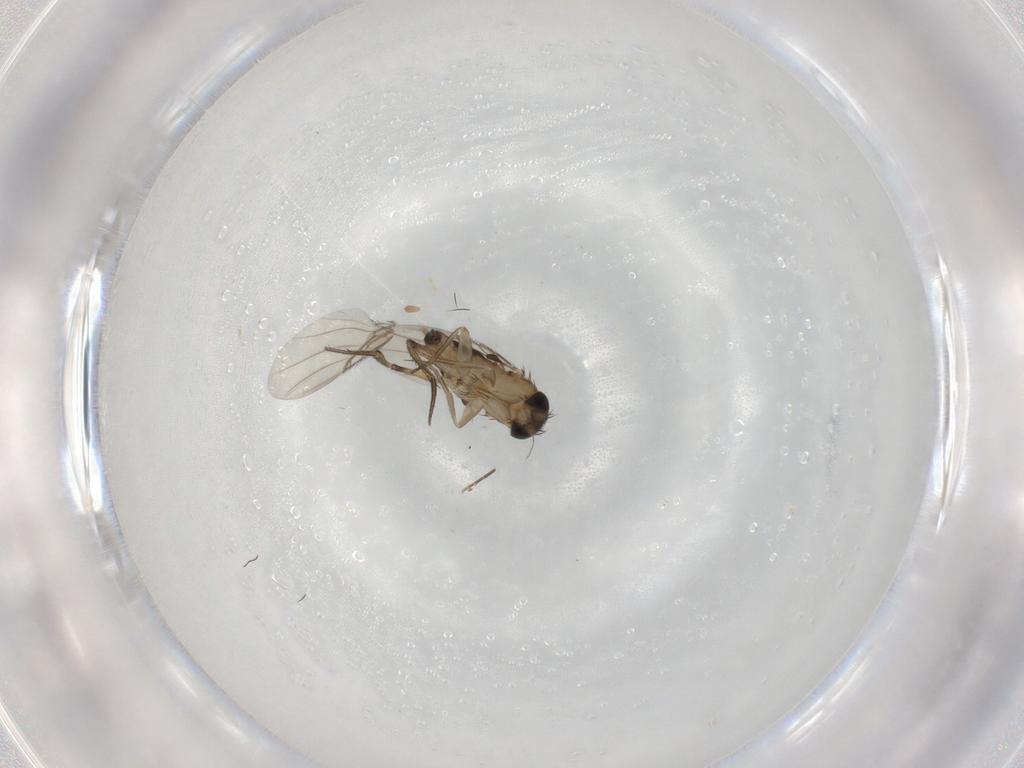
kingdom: Animalia
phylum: Arthropoda
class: Insecta
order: Diptera
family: Phoridae
